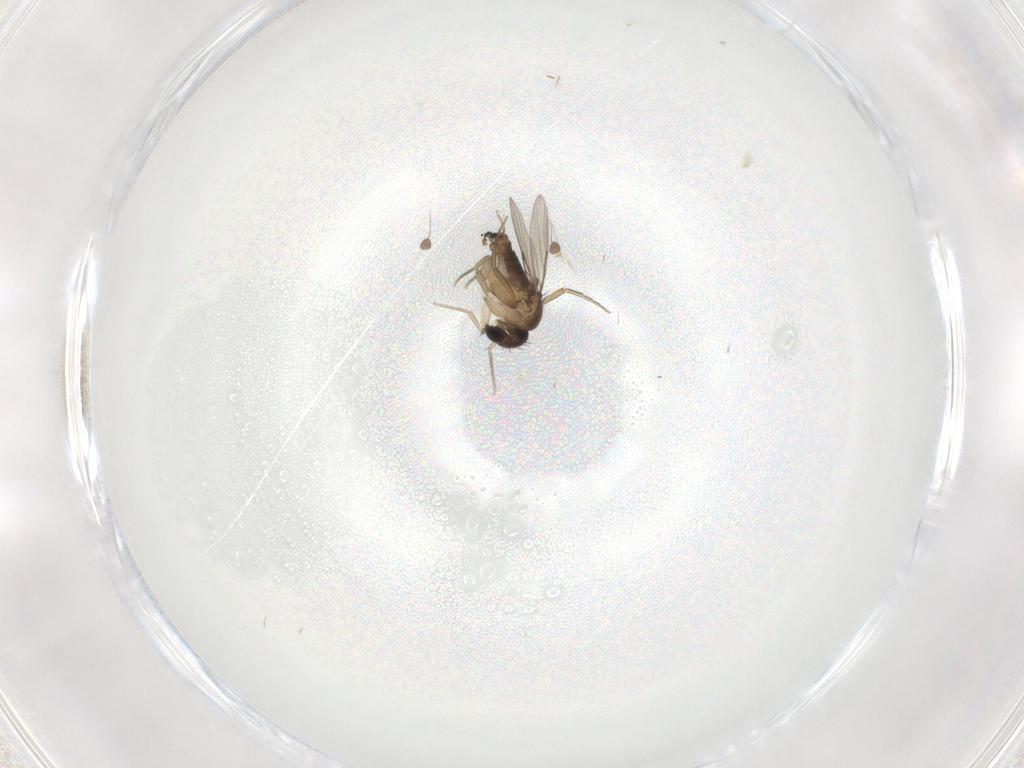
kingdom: Animalia
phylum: Arthropoda
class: Insecta
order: Diptera
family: Phoridae
